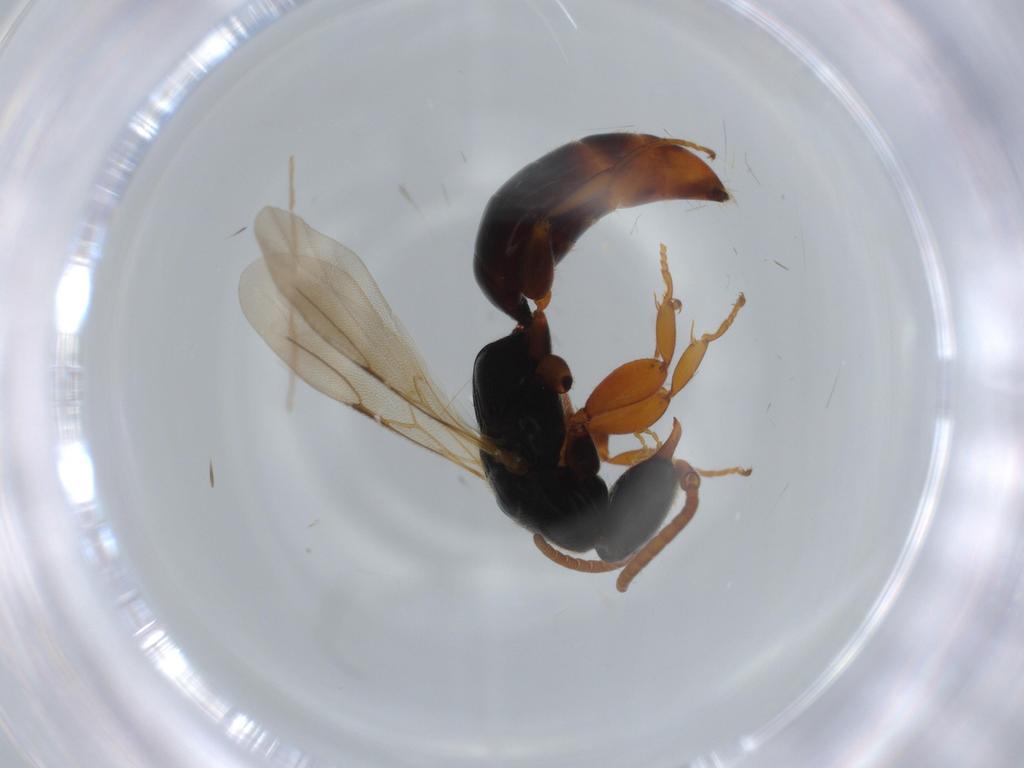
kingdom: Animalia
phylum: Arthropoda
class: Insecta
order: Hymenoptera
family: Bethylidae
